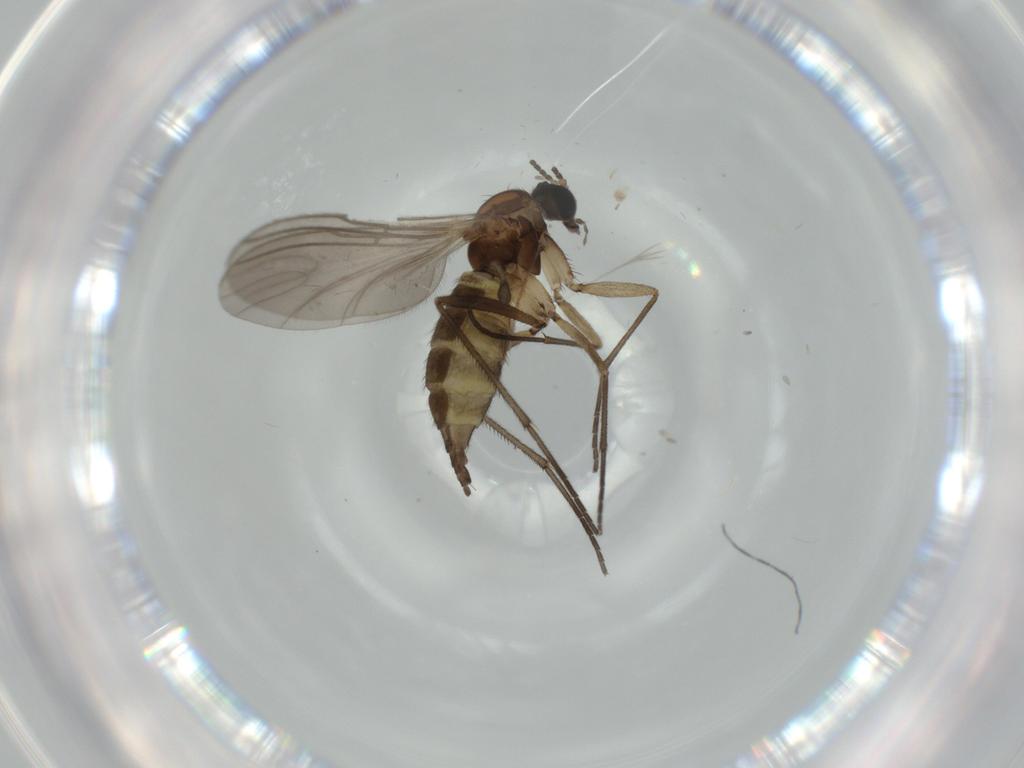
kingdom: Animalia
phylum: Arthropoda
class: Insecta
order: Diptera
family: Sciaridae
